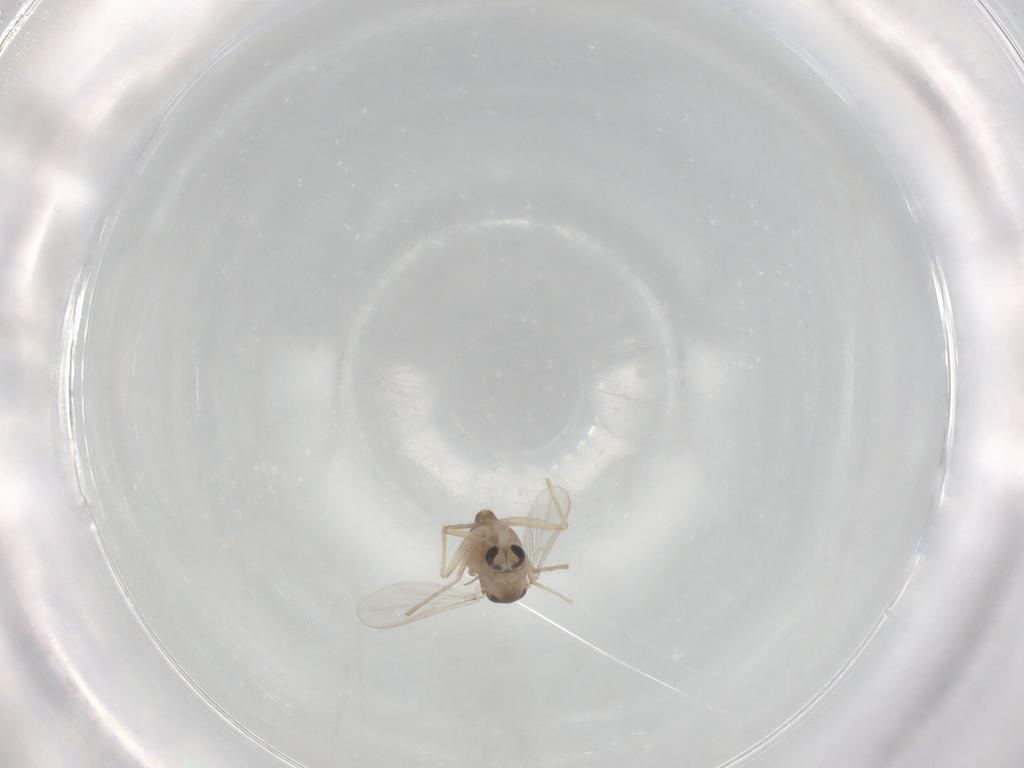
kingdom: Animalia
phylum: Arthropoda
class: Insecta
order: Diptera
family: Chironomidae
